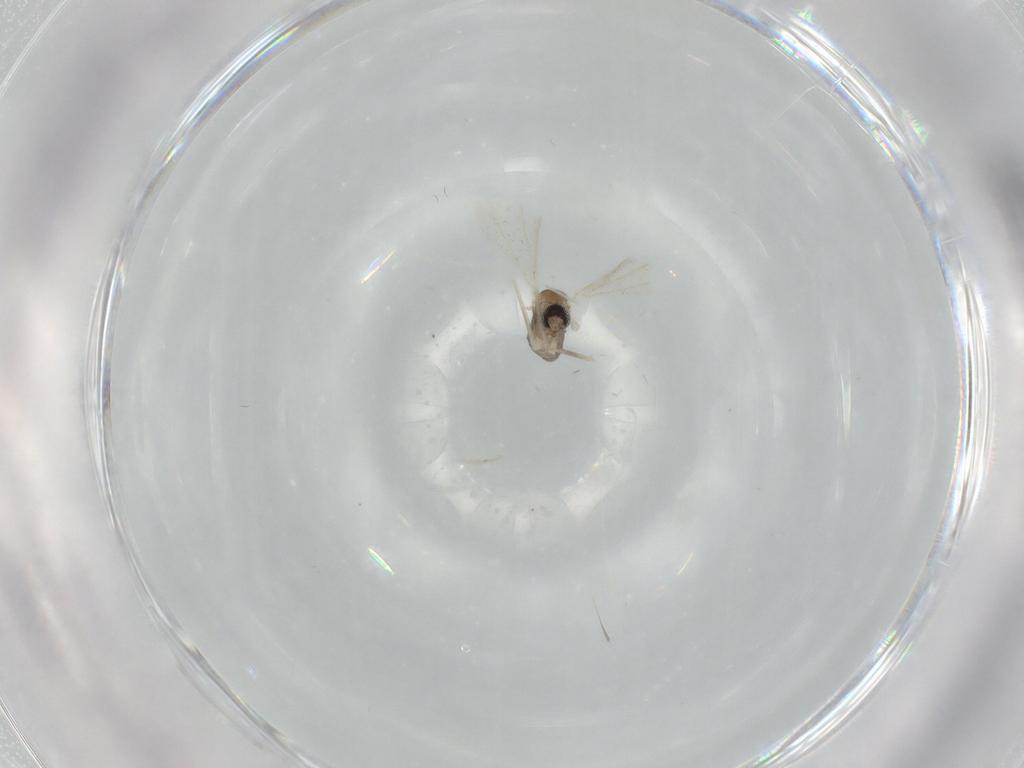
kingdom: Animalia
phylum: Arthropoda
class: Insecta
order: Diptera
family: Cecidomyiidae
